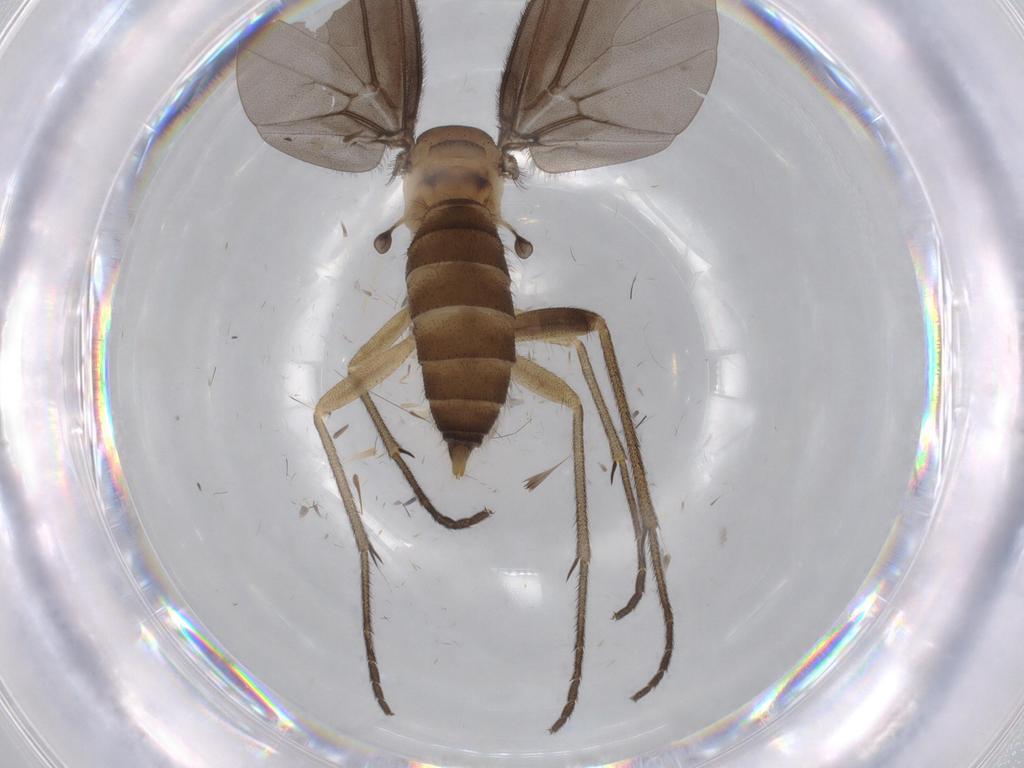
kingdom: Animalia
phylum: Arthropoda
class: Insecta
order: Diptera
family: Diadocidiidae
